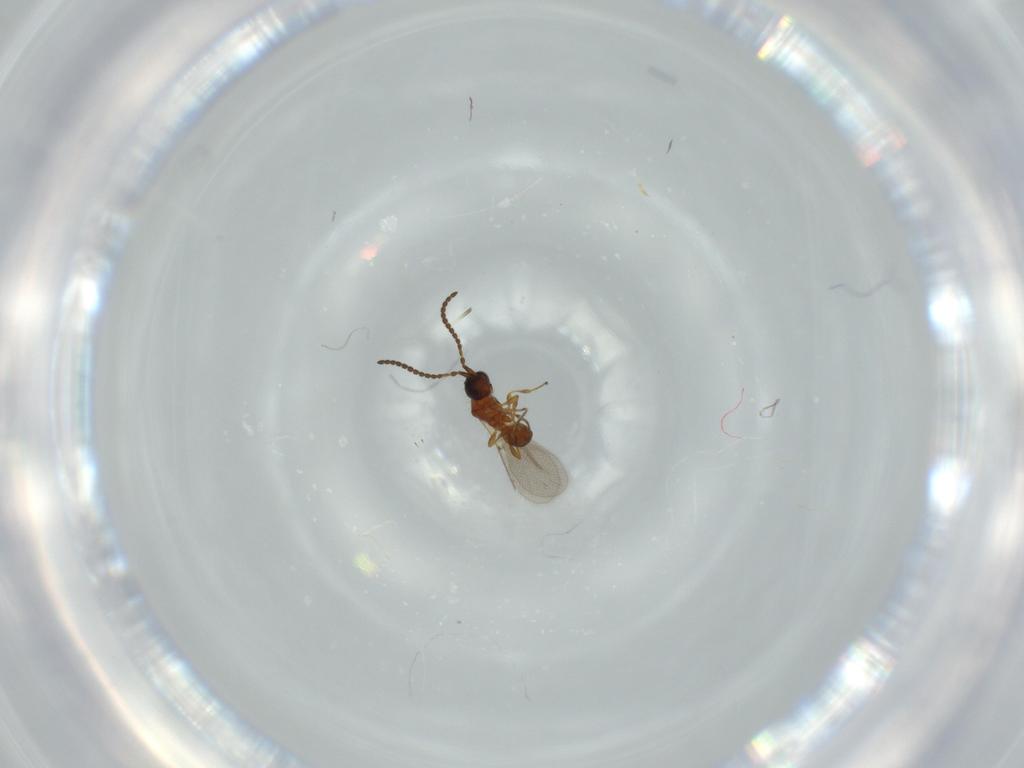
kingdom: Animalia
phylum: Arthropoda
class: Insecta
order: Hymenoptera
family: Diapriidae
